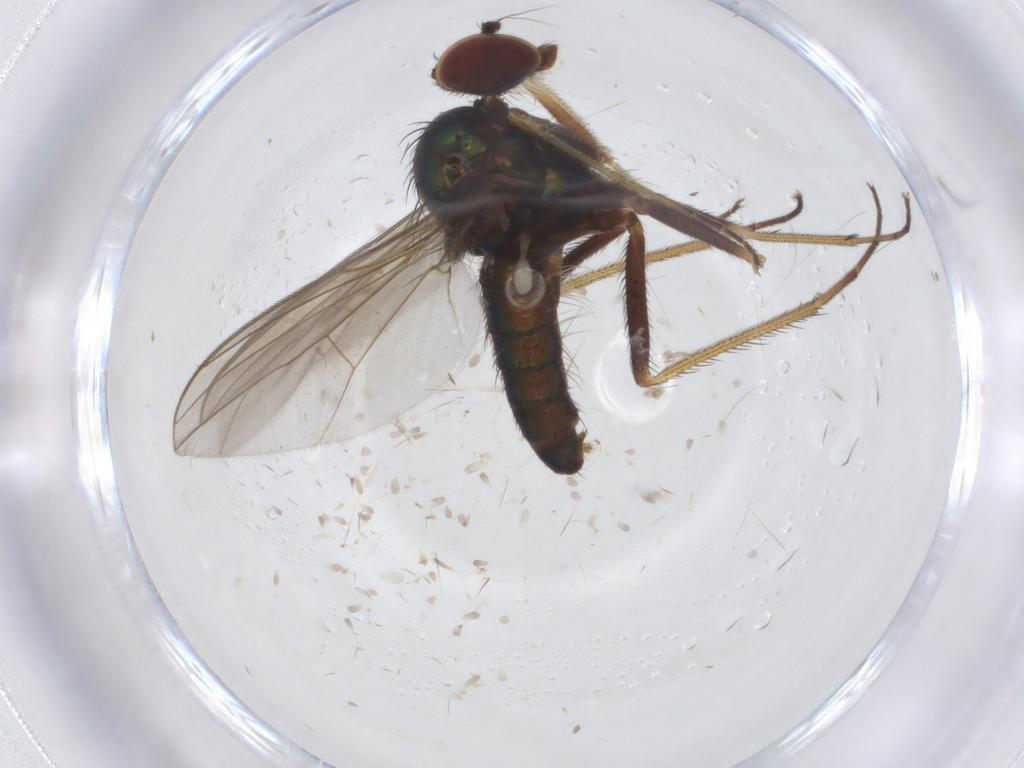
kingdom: Animalia
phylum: Arthropoda
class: Insecta
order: Diptera
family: Dolichopodidae
